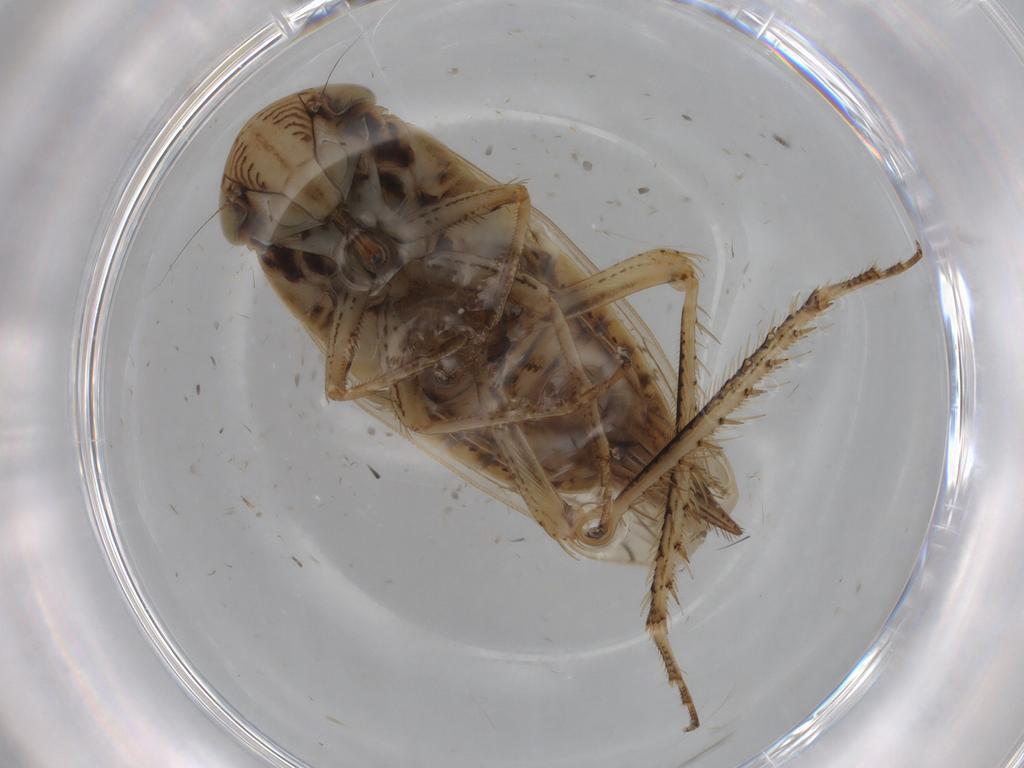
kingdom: Animalia
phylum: Arthropoda
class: Insecta
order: Hemiptera
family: Cicadellidae
